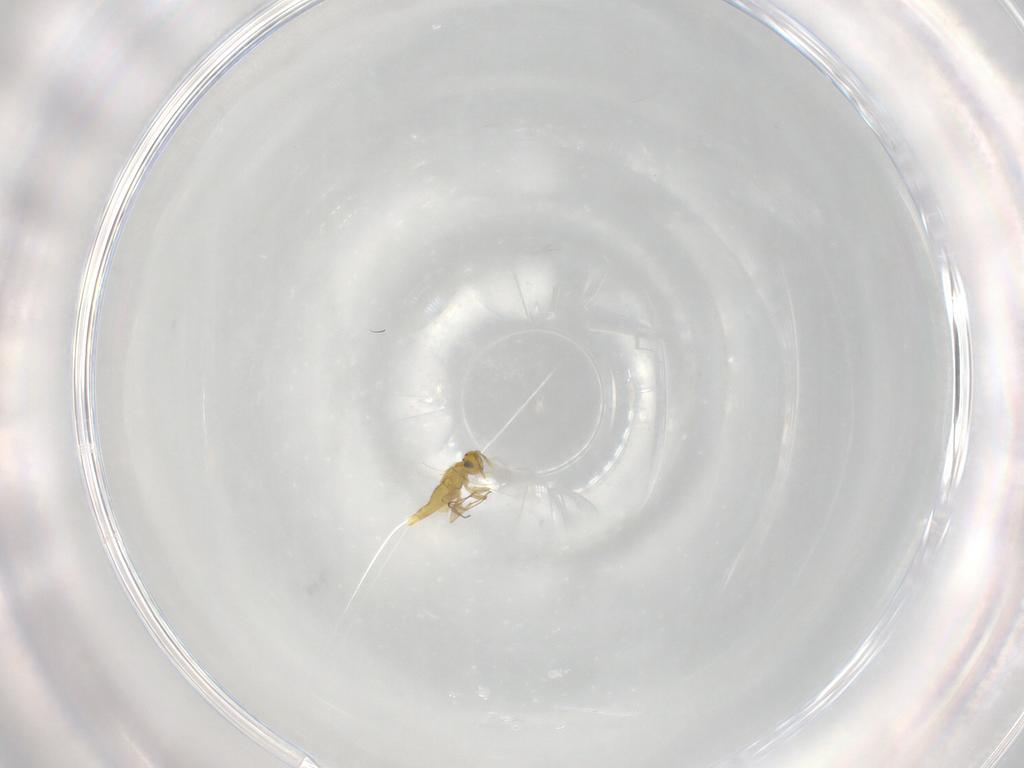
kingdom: Animalia
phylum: Arthropoda
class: Insecta
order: Hymenoptera
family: Aphelinidae
